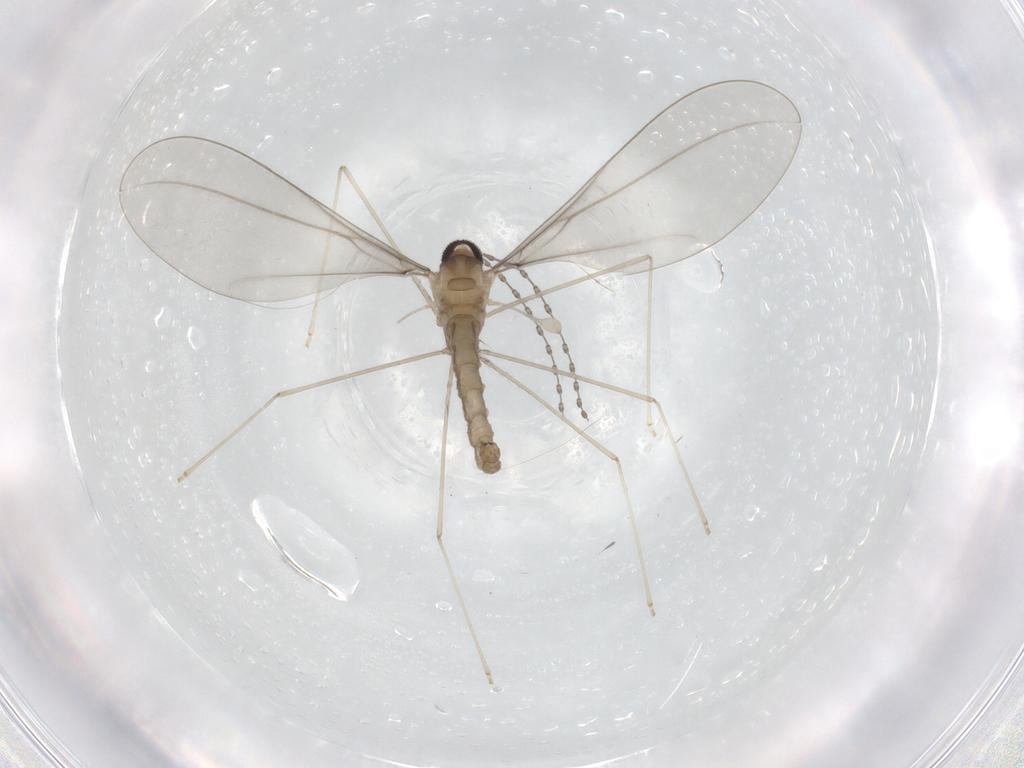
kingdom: Animalia
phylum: Arthropoda
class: Insecta
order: Diptera
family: Cecidomyiidae
